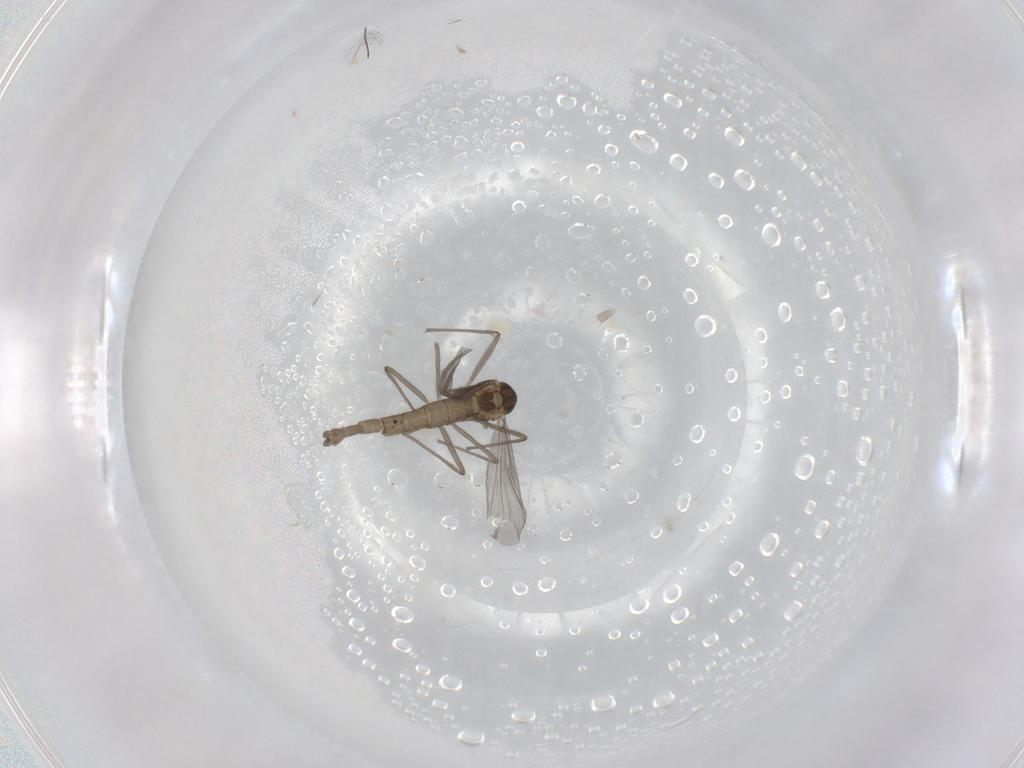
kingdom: Animalia
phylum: Arthropoda
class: Insecta
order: Diptera
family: Chironomidae
